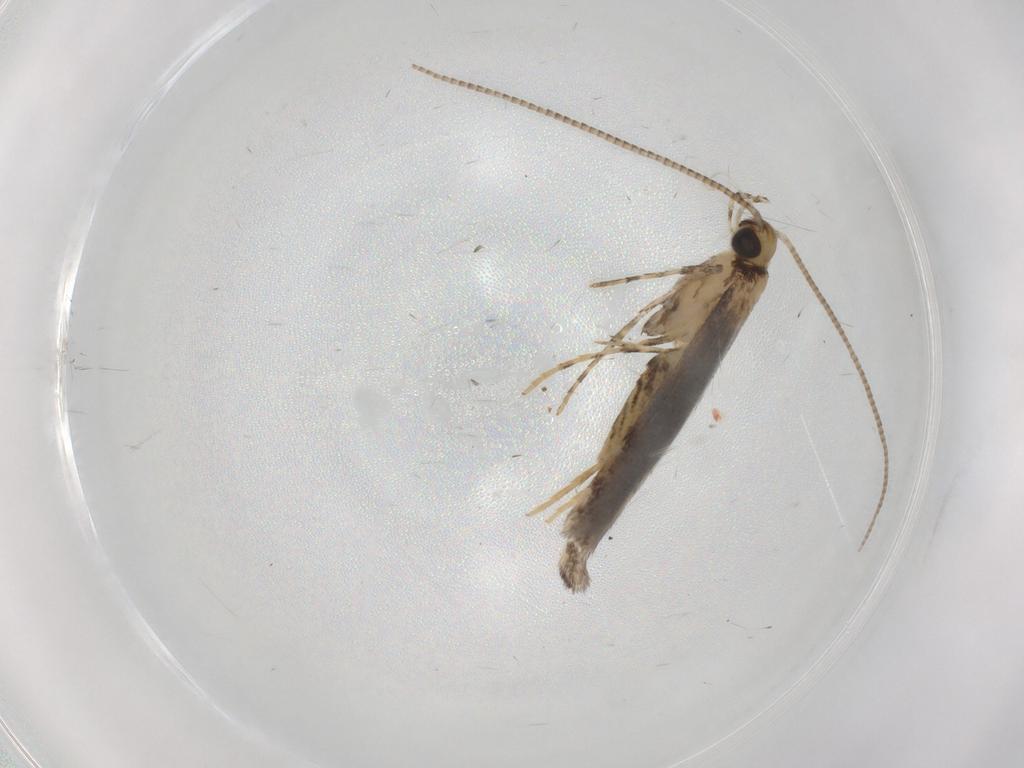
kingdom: Animalia
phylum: Arthropoda
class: Insecta
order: Lepidoptera
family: Gracillariidae
